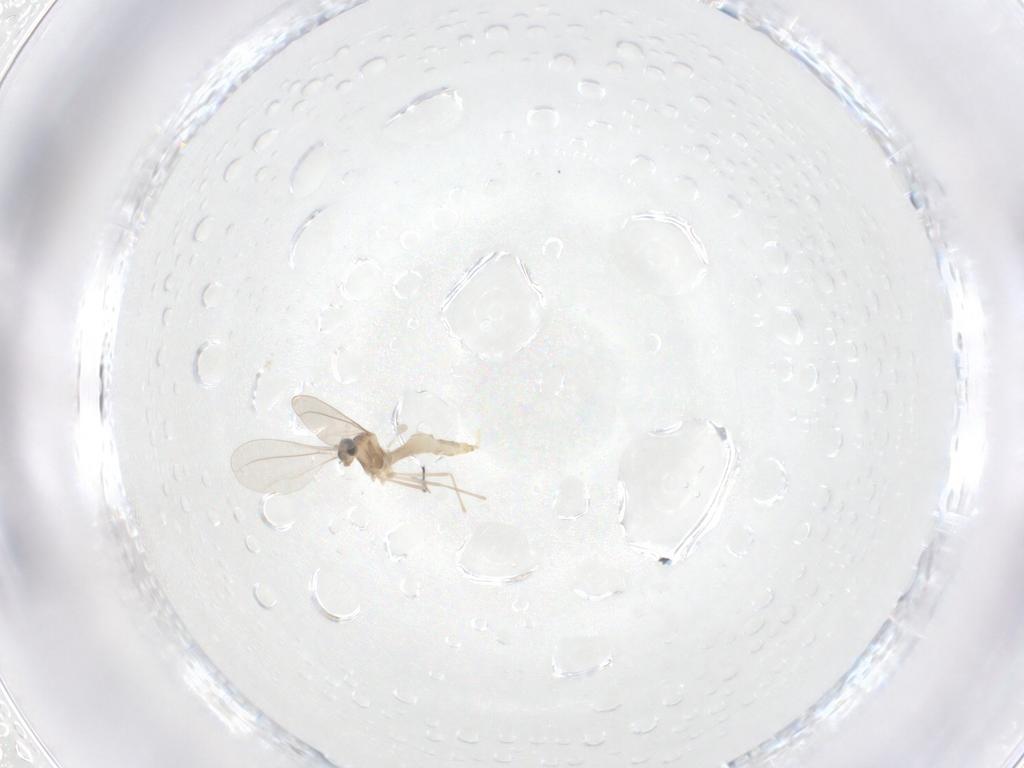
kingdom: Animalia
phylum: Arthropoda
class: Insecta
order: Diptera
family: Cecidomyiidae
